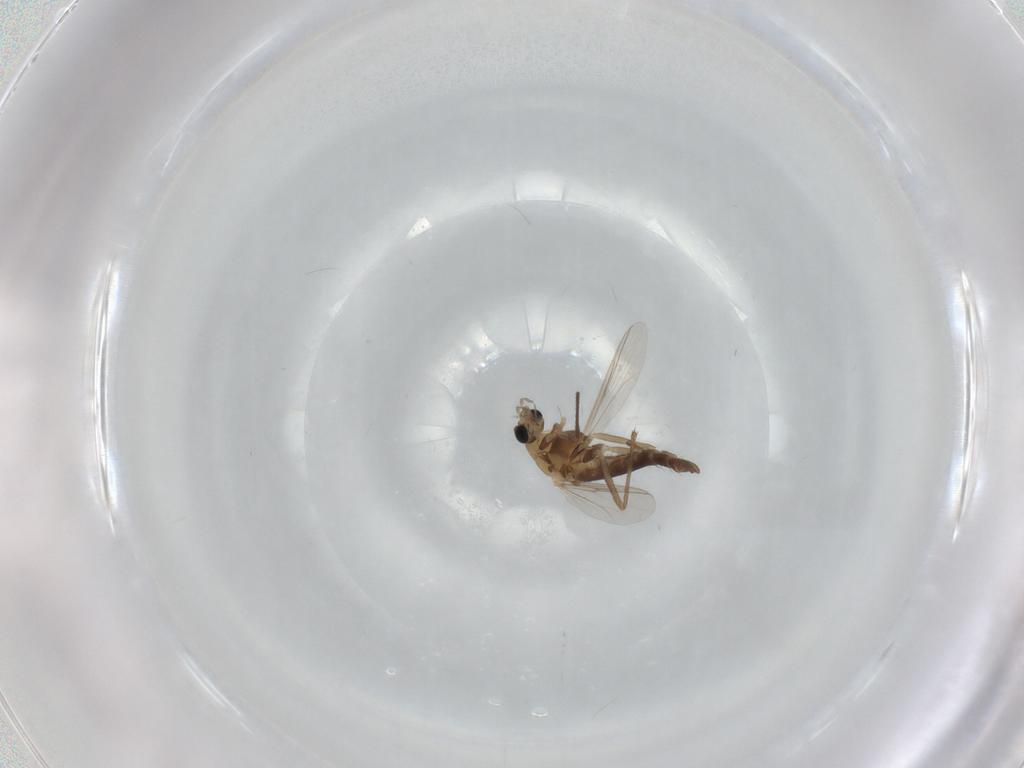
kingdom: Animalia
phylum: Arthropoda
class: Insecta
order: Diptera
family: Chironomidae
